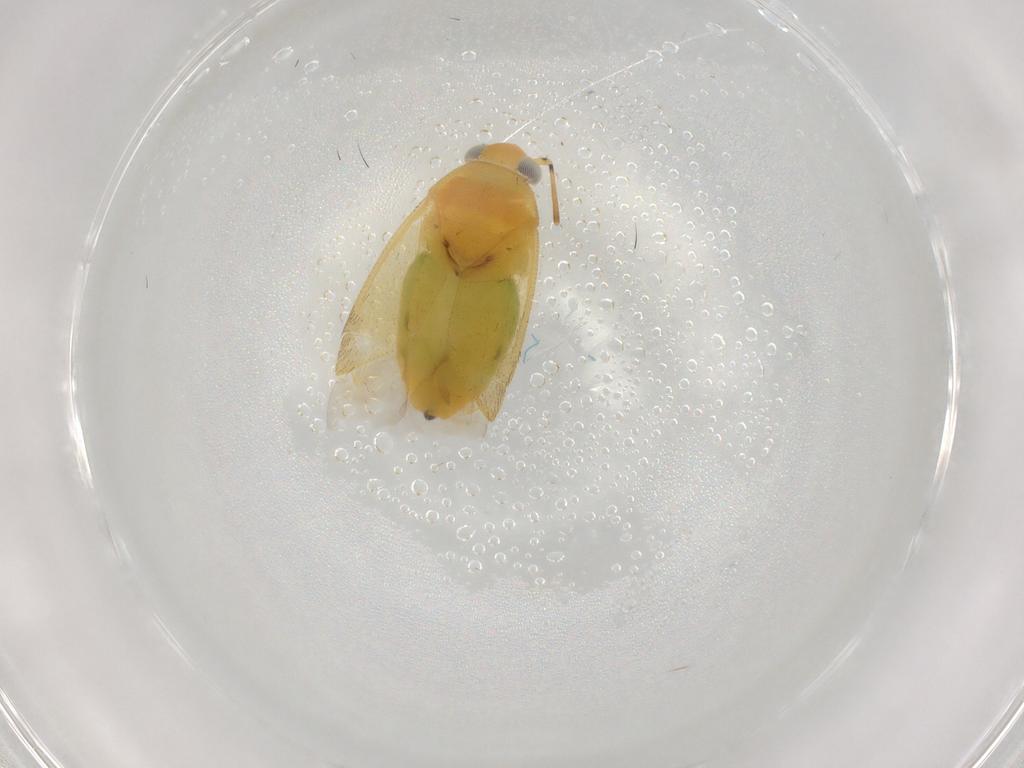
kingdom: Animalia
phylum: Arthropoda
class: Insecta
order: Hemiptera
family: Miridae
